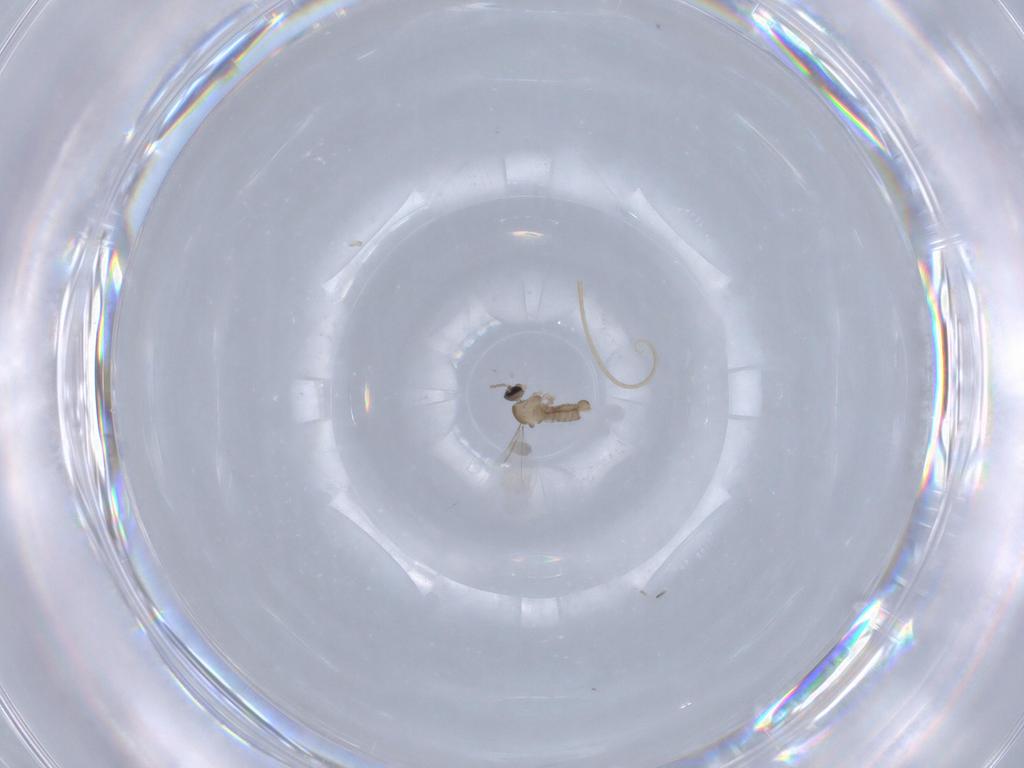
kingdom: Animalia
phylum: Arthropoda
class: Insecta
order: Diptera
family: Cecidomyiidae
